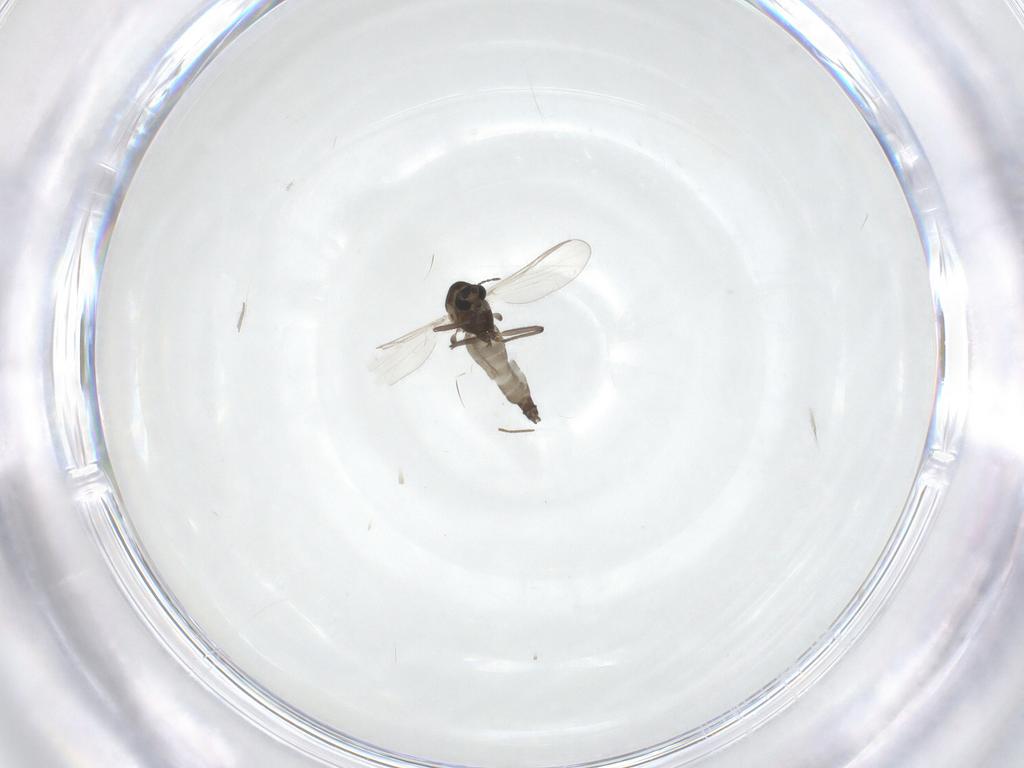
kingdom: Animalia
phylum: Arthropoda
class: Insecta
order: Diptera
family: Chironomidae
